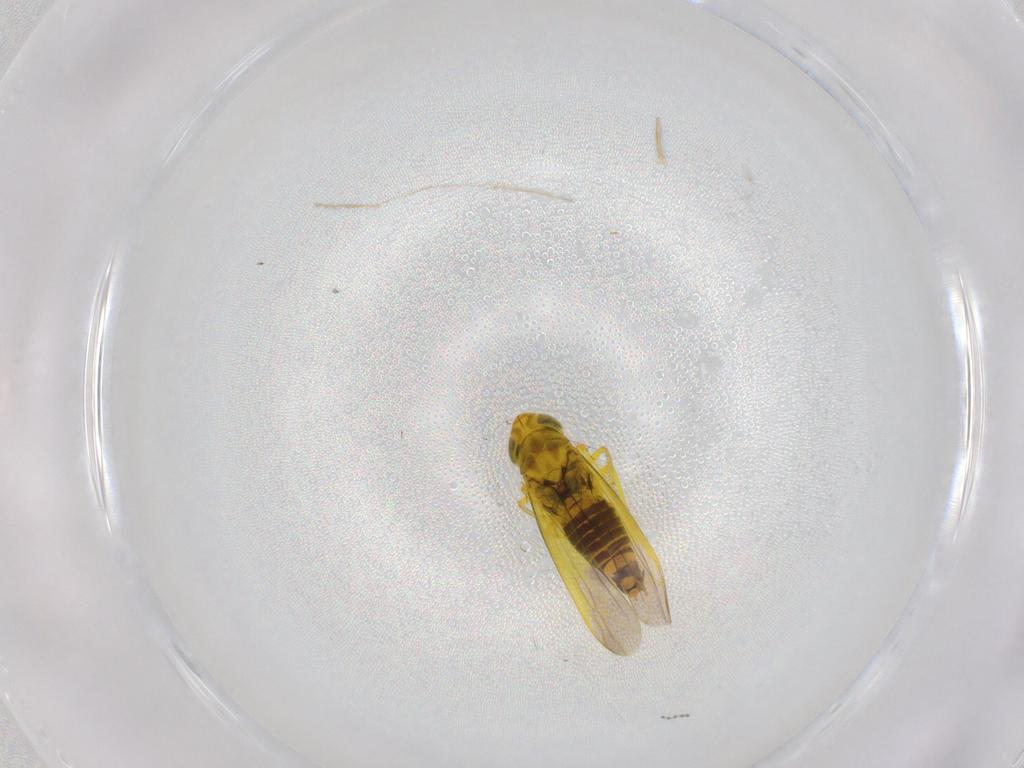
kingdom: Animalia
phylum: Arthropoda
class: Insecta
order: Hemiptera
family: Cicadellidae
